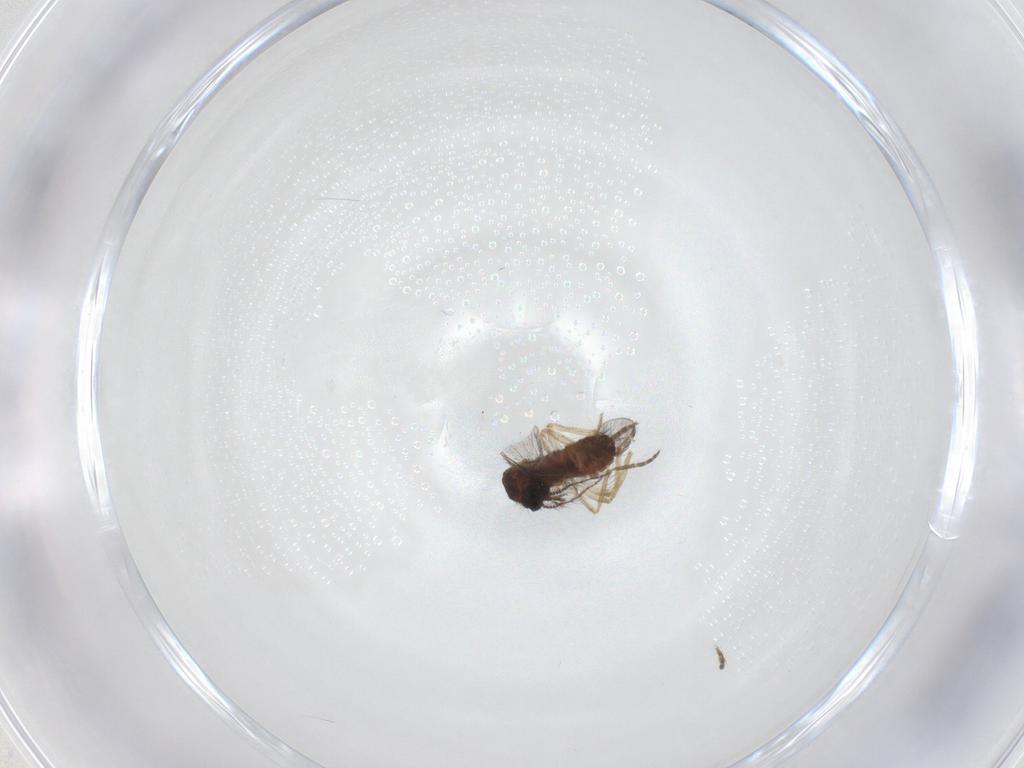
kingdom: Animalia
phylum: Arthropoda
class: Insecta
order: Diptera
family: Ceratopogonidae
